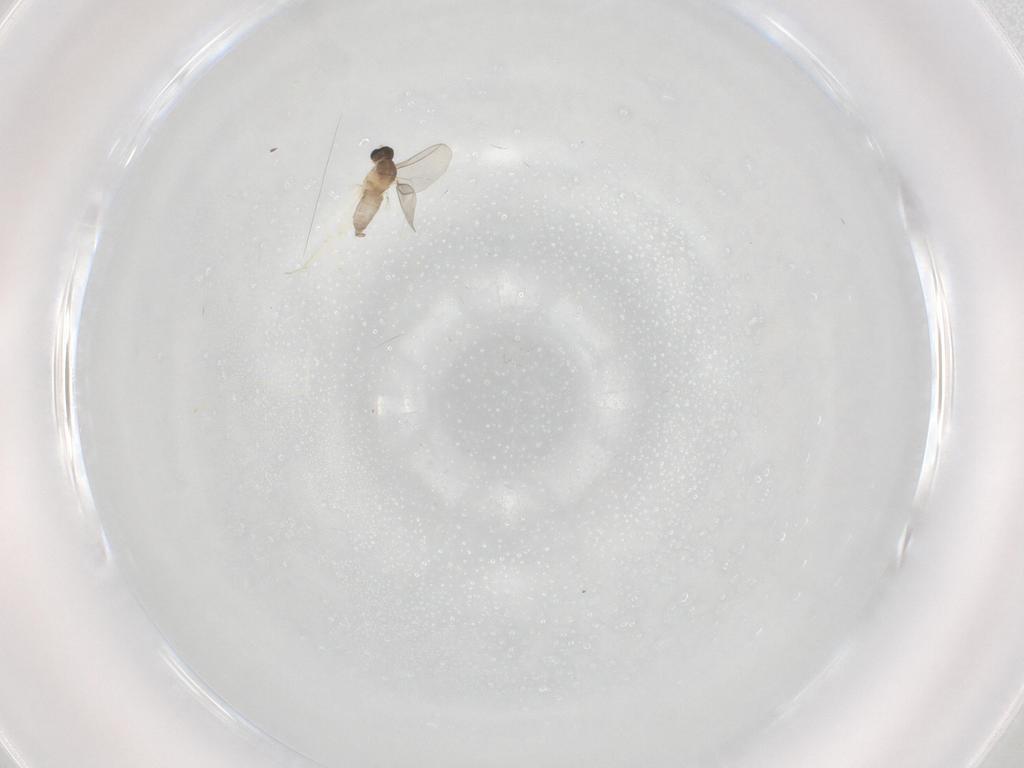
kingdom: Animalia
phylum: Arthropoda
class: Insecta
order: Diptera
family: Cecidomyiidae
